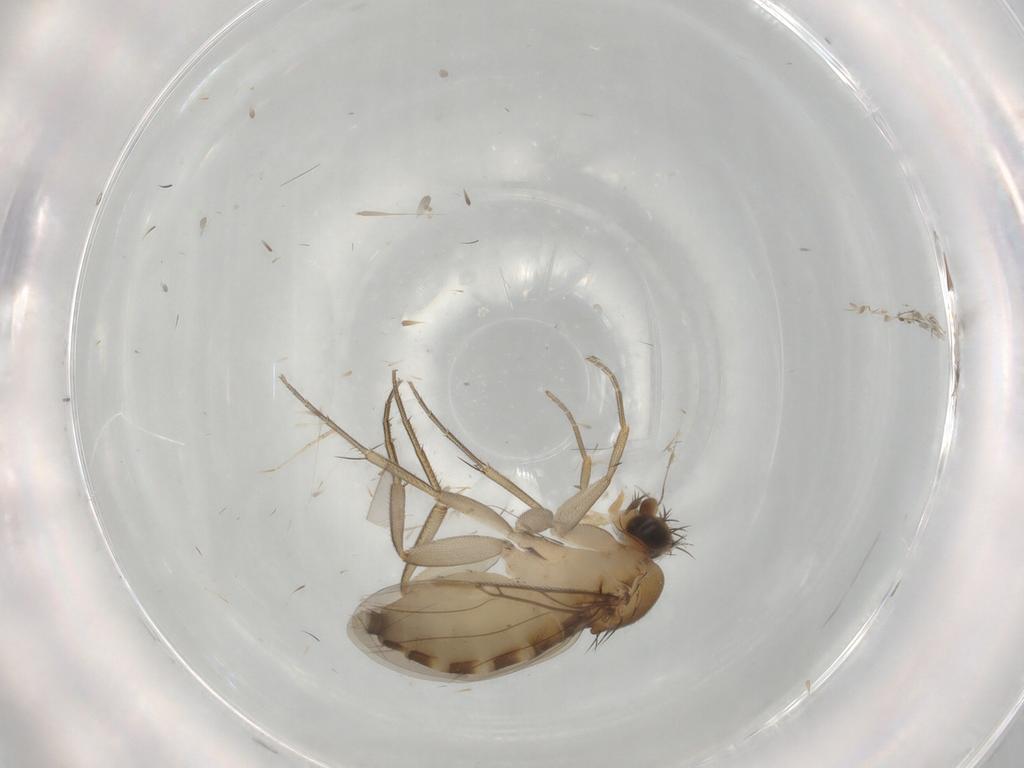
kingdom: Animalia
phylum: Arthropoda
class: Insecta
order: Diptera
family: Phoridae
